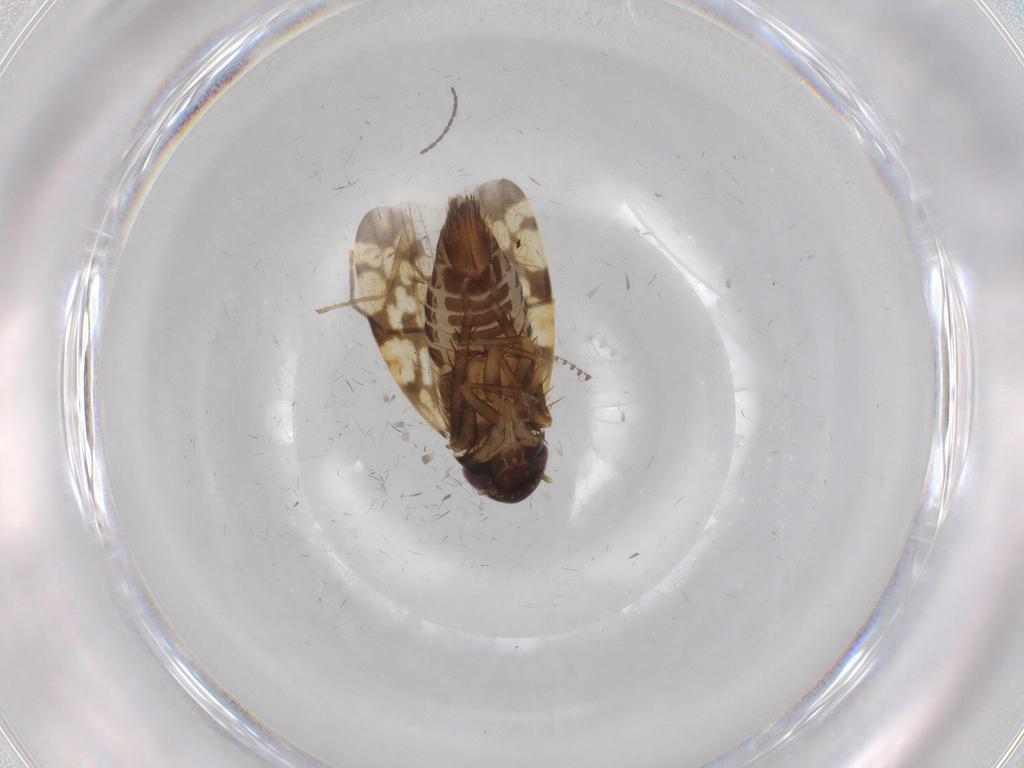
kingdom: Animalia
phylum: Arthropoda
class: Insecta
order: Hemiptera
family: Cicadellidae
